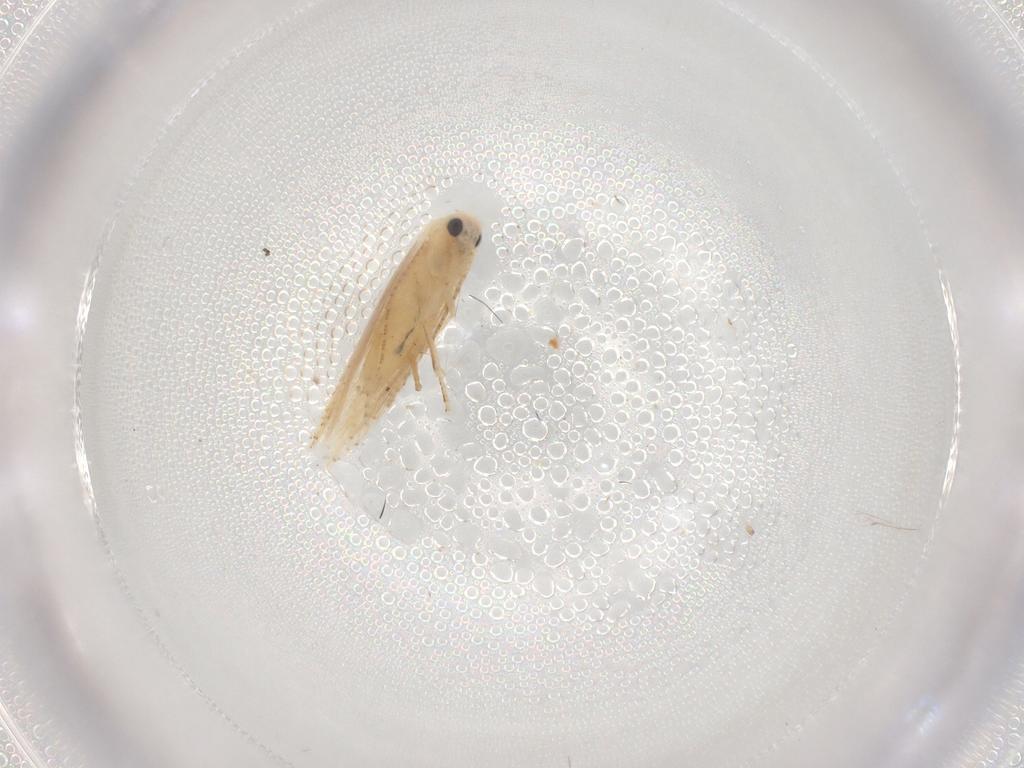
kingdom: Animalia
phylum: Arthropoda
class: Insecta
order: Lepidoptera
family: Depressariidae
